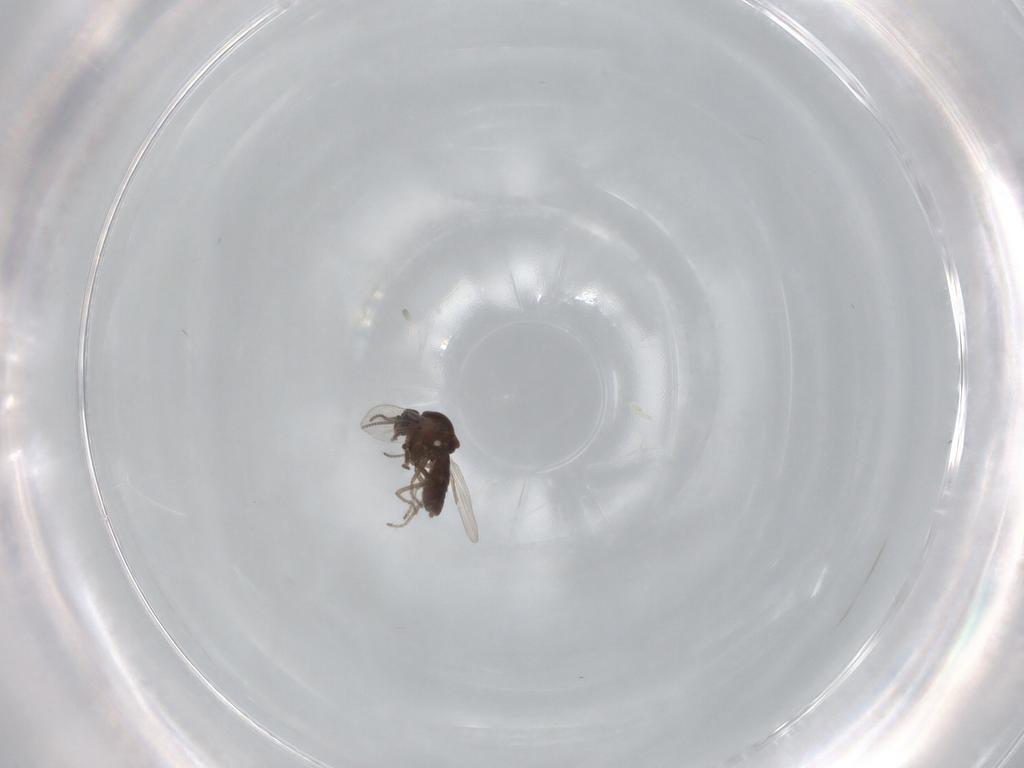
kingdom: Animalia
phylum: Arthropoda
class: Insecta
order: Diptera
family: Ceratopogonidae
